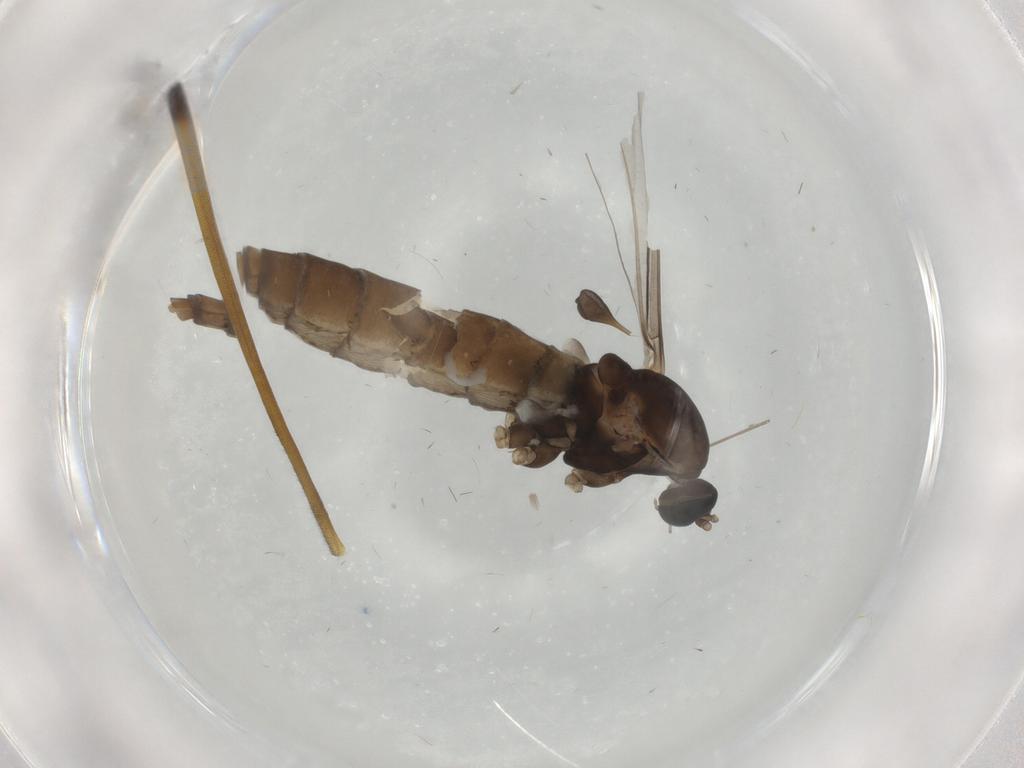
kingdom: Animalia
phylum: Arthropoda
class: Insecta
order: Diptera
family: Cecidomyiidae
